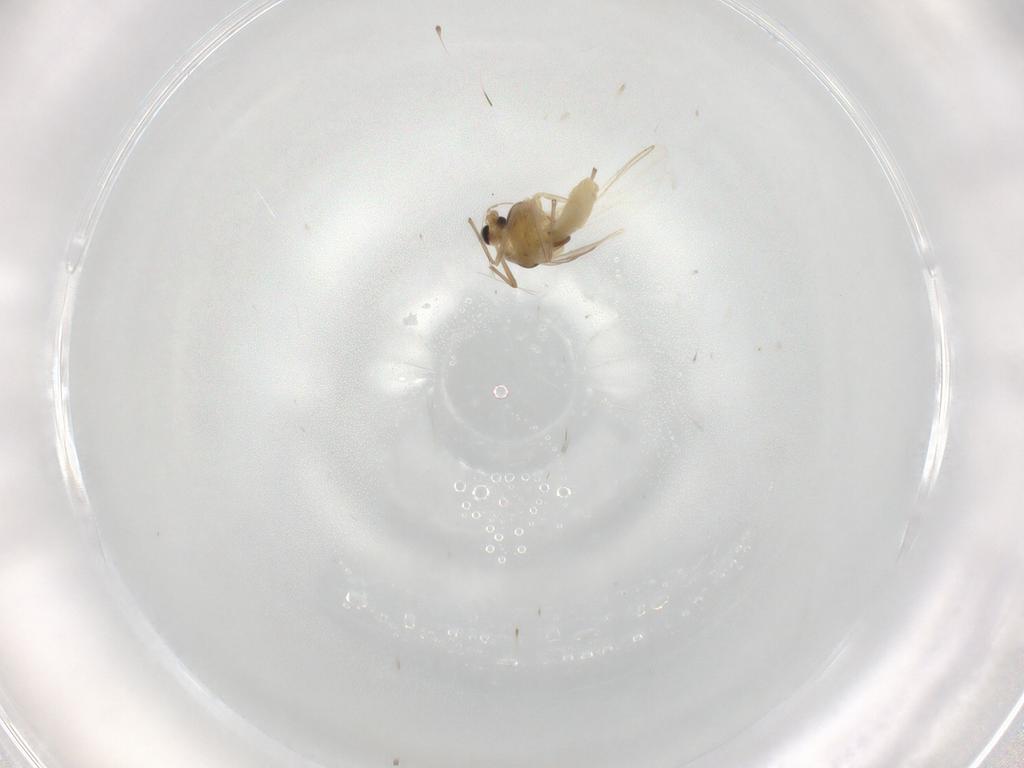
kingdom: Animalia
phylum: Arthropoda
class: Insecta
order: Diptera
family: Chironomidae
